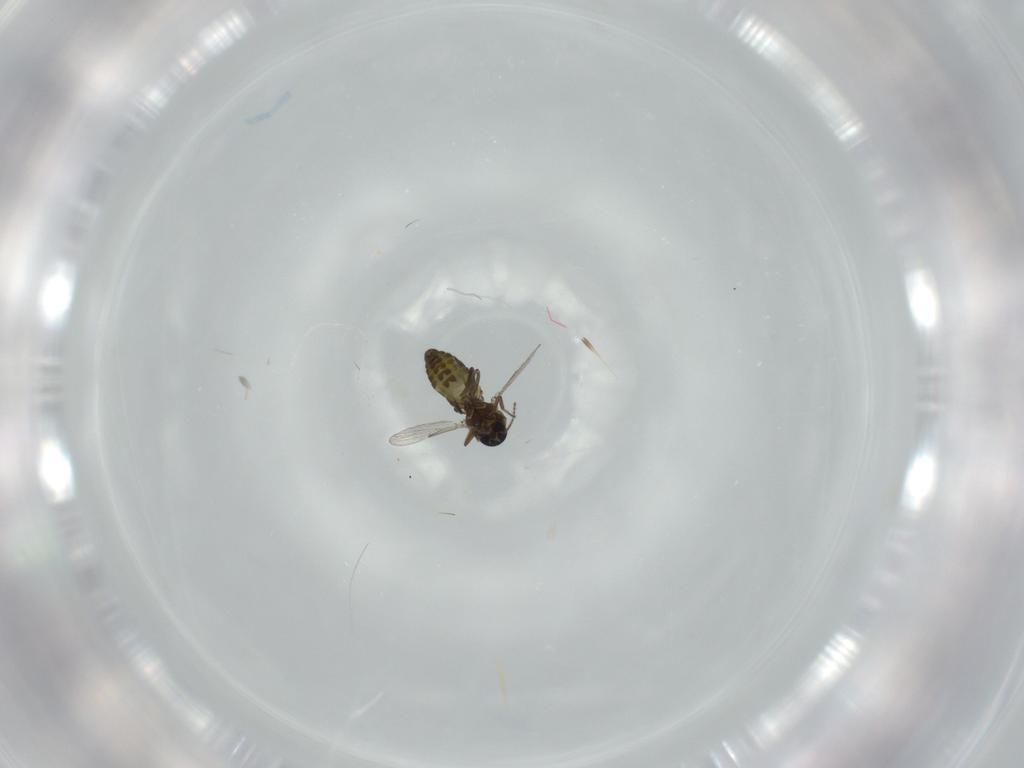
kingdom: Animalia
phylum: Arthropoda
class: Insecta
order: Diptera
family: Ceratopogonidae
